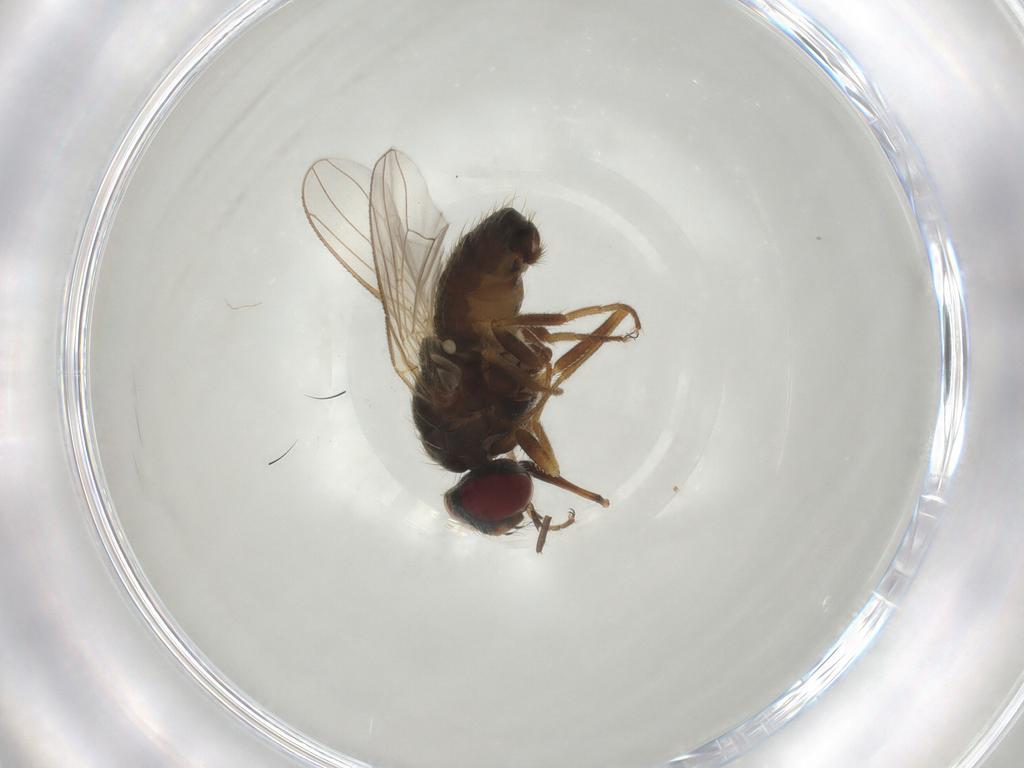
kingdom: Animalia
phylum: Arthropoda
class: Insecta
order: Diptera
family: Muscidae
